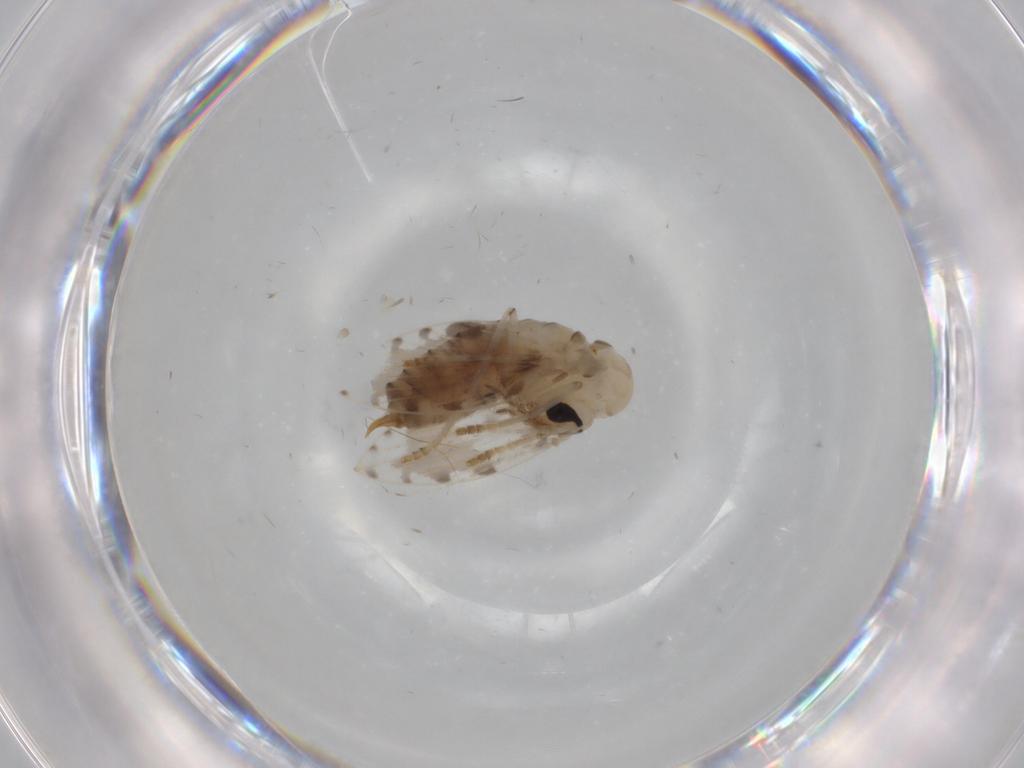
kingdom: Animalia
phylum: Arthropoda
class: Insecta
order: Diptera
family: Psychodidae
